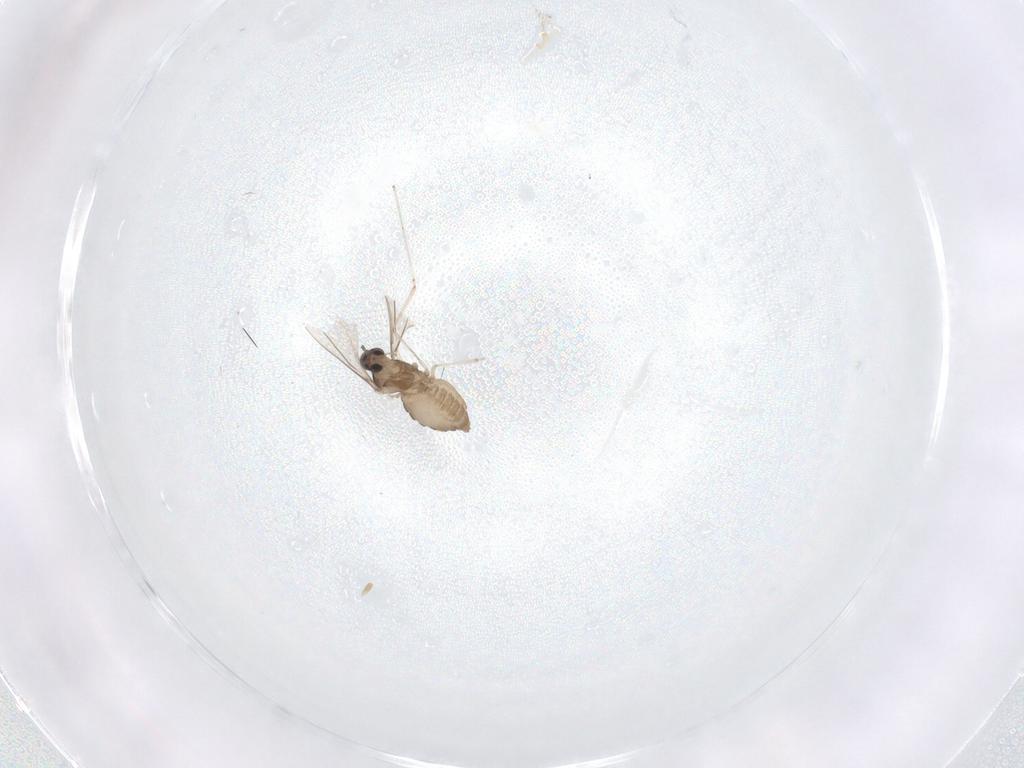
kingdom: Animalia
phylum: Arthropoda
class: Insecta
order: Diptera
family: Cecidomyiidae
